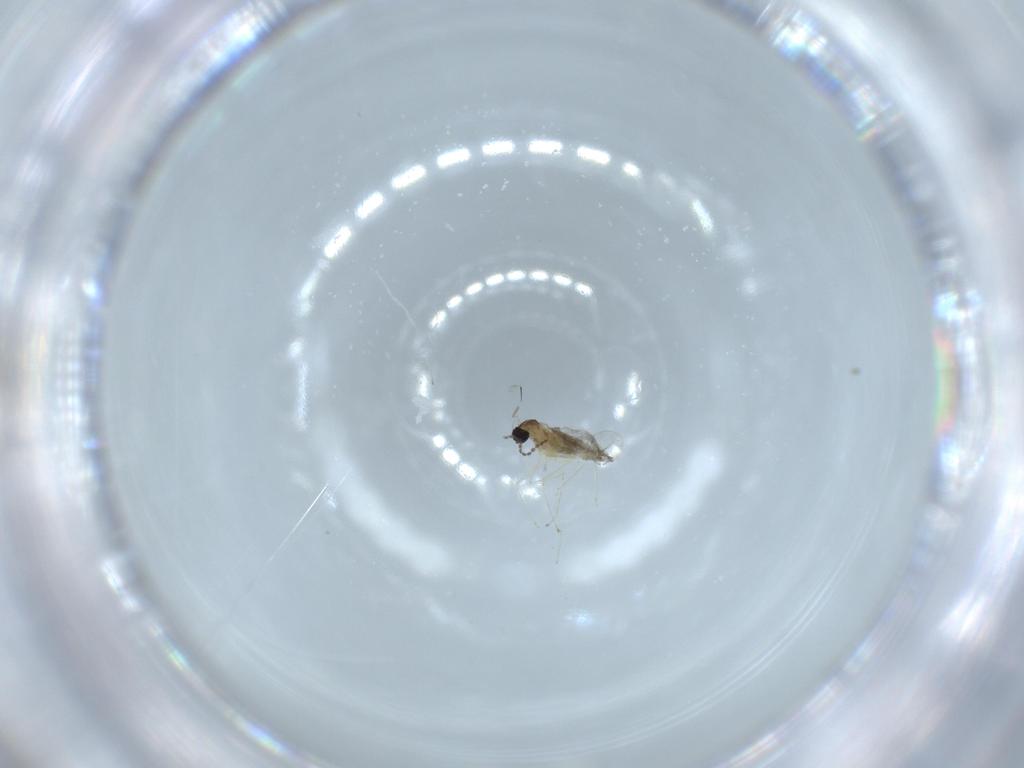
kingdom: Animalia
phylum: Arthropoda
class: Insecta
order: Diptera
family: Cecidomyiidae
